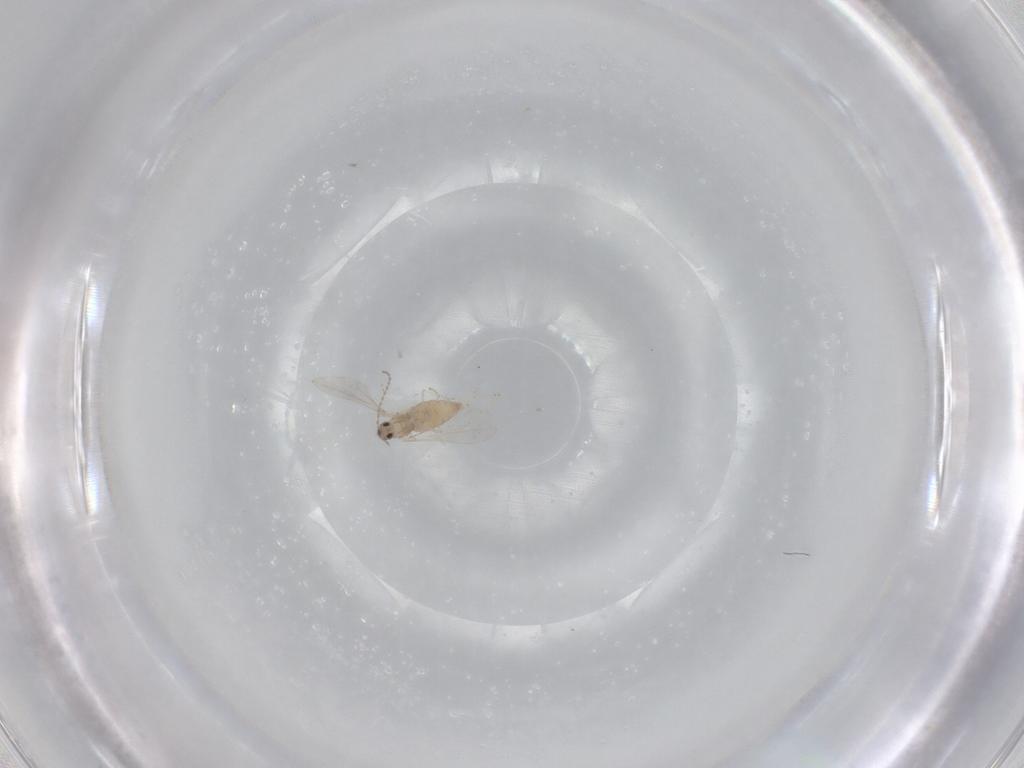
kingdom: Animalia
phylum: Arthropoda
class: Insecta
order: Diptera
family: Cecidomyiidae
